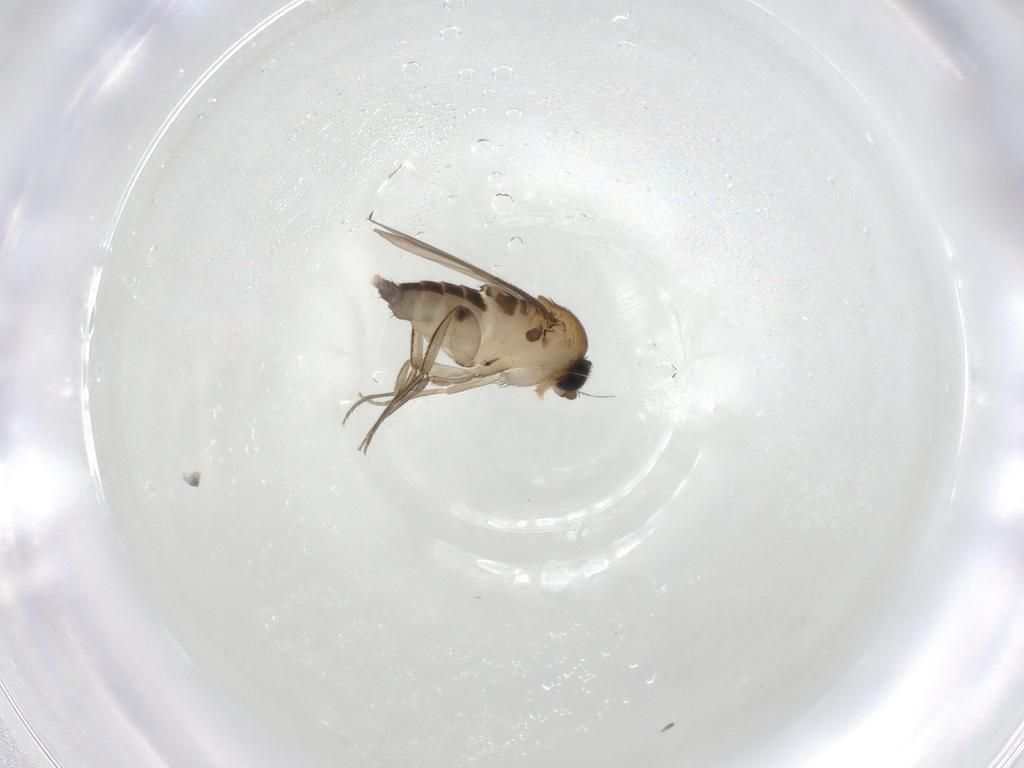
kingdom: Animalia
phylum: Arthropoda
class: Insecta
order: Diptera
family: Phoridae
